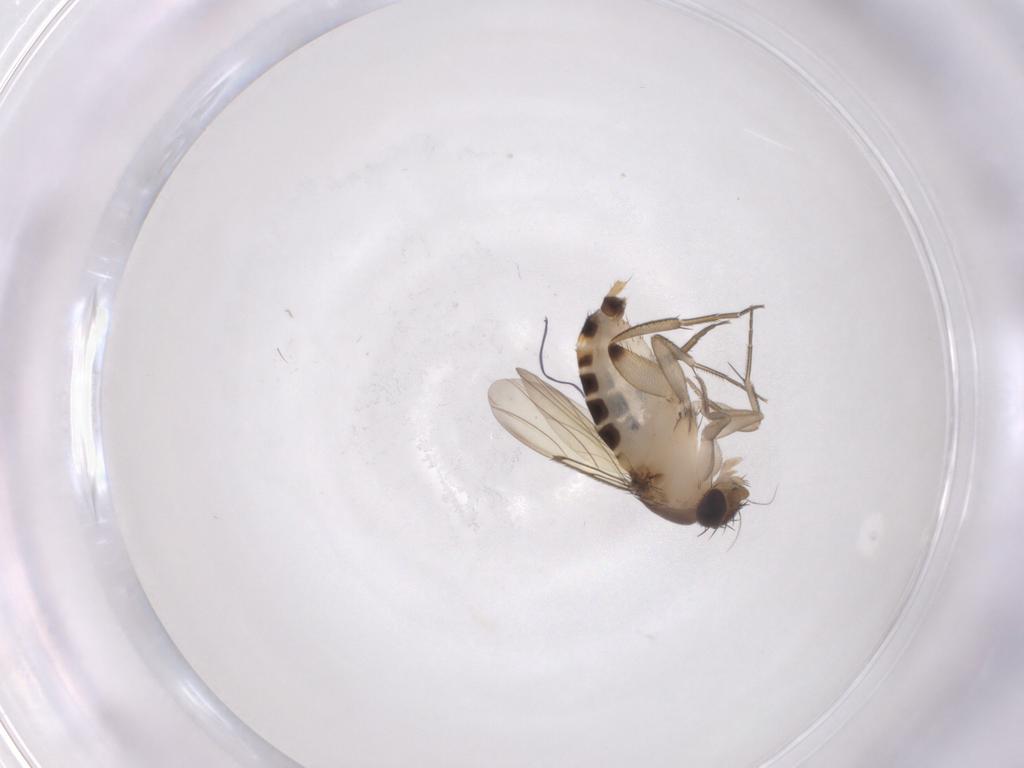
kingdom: Animalia
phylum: Arthropoda
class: Insecta
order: Diptera
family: Phoridae
